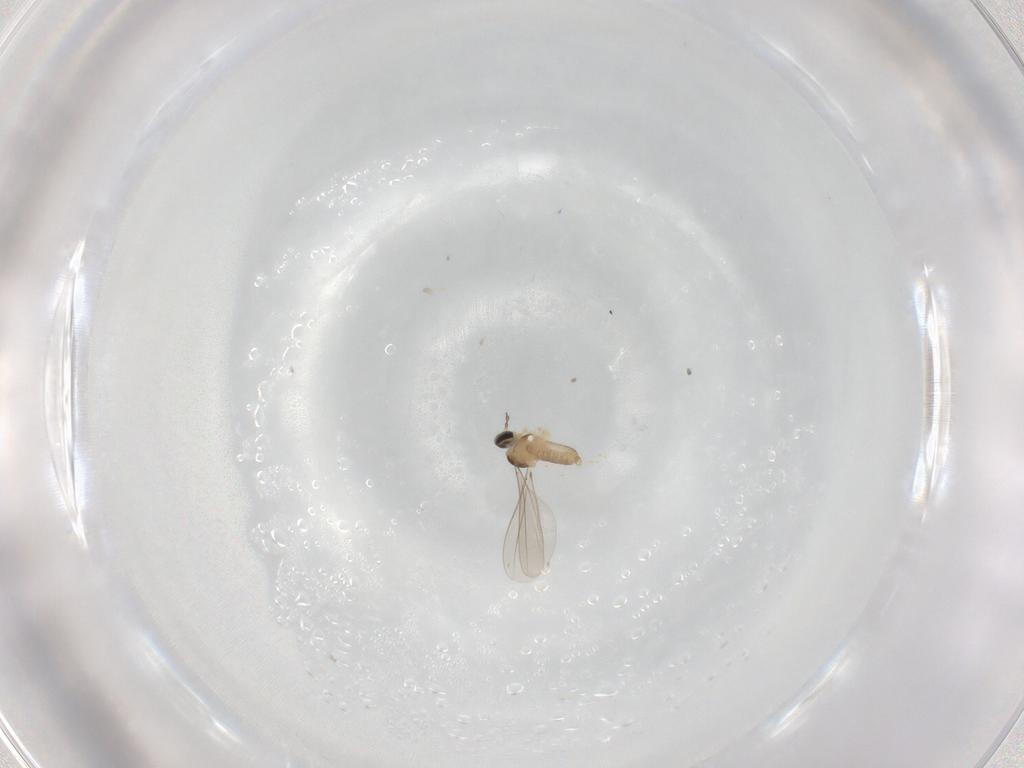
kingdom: Animalia
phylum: Arthropoda
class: Insecta
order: Diptera
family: Cecidomyiidae
